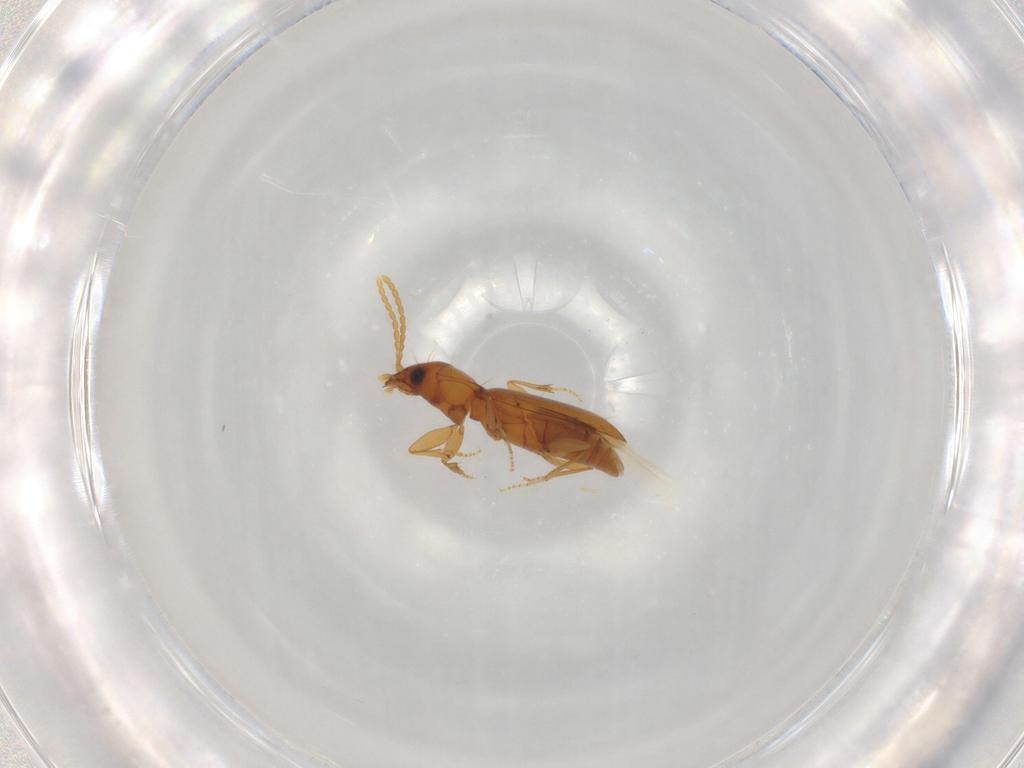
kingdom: Animalia
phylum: Arthropoda
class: Insecta
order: Coleoptera
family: Carabidae
